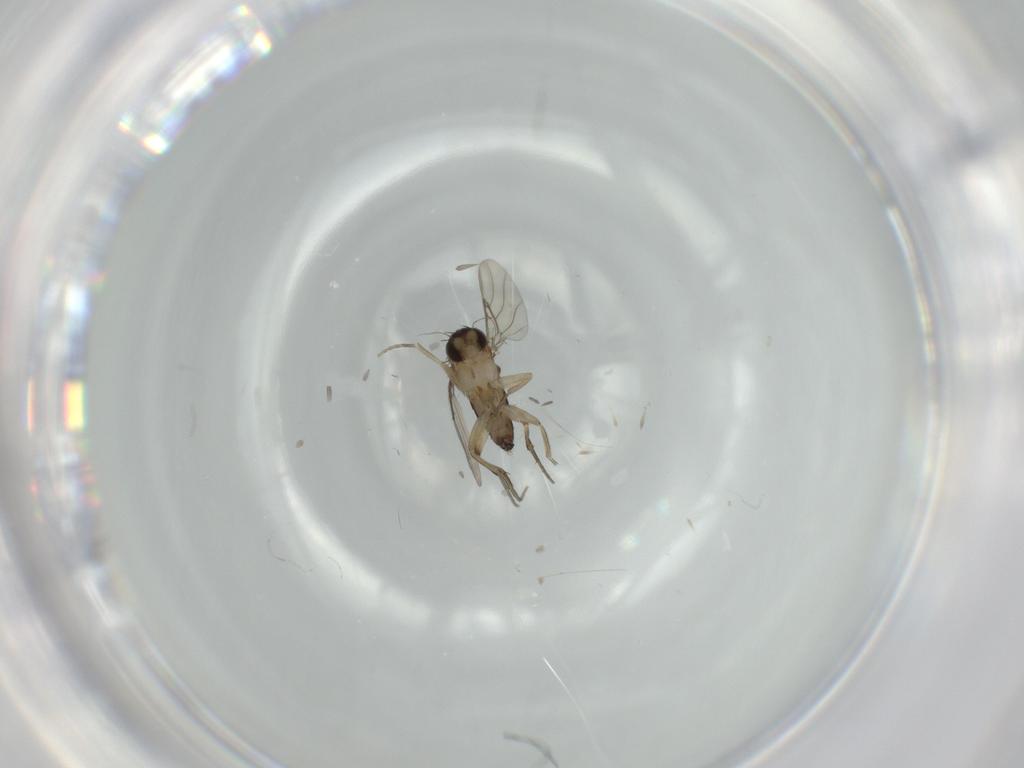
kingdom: Animalia
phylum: Arthropoda
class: Insecta
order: Diptera
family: Phoridae
